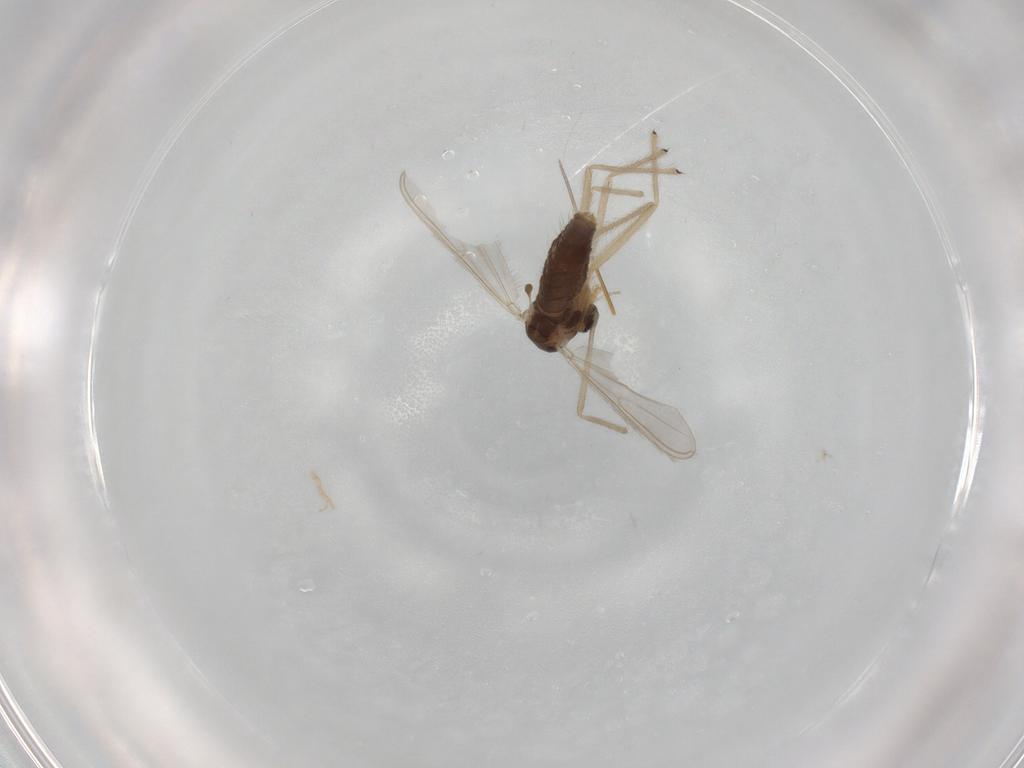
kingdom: Animalia
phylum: Arthropoda
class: Insecta
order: Diptera
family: Chironomidae
